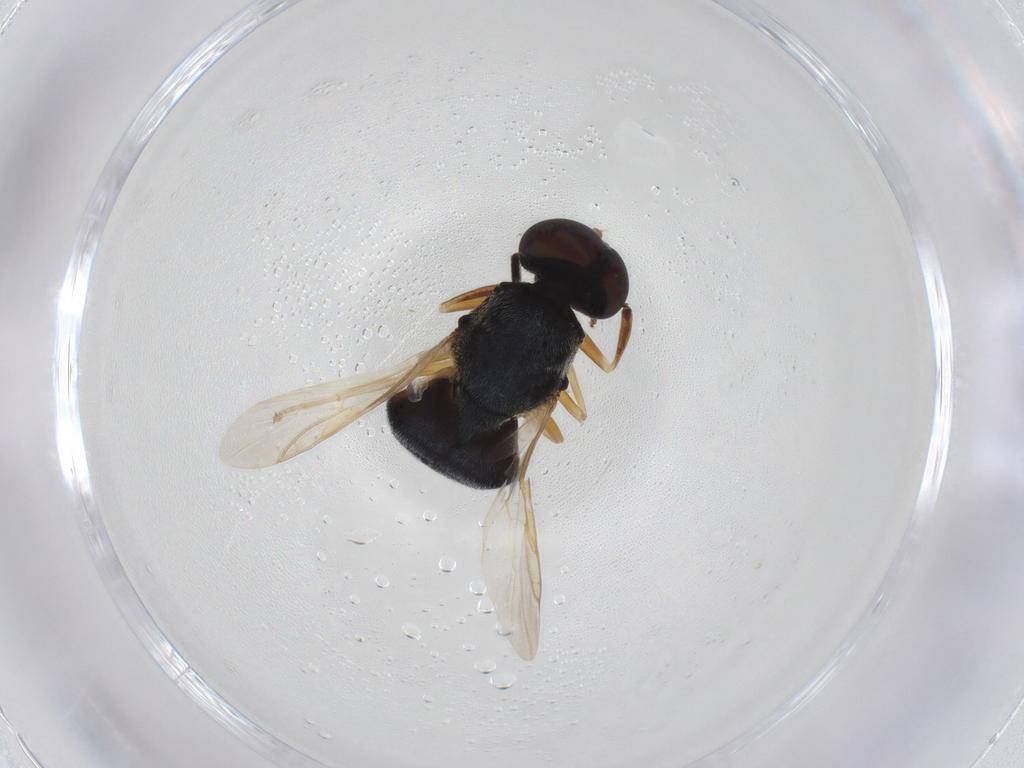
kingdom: Animalia
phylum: Arthropoda
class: Insecta
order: Diptera
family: Stratiomyidae
